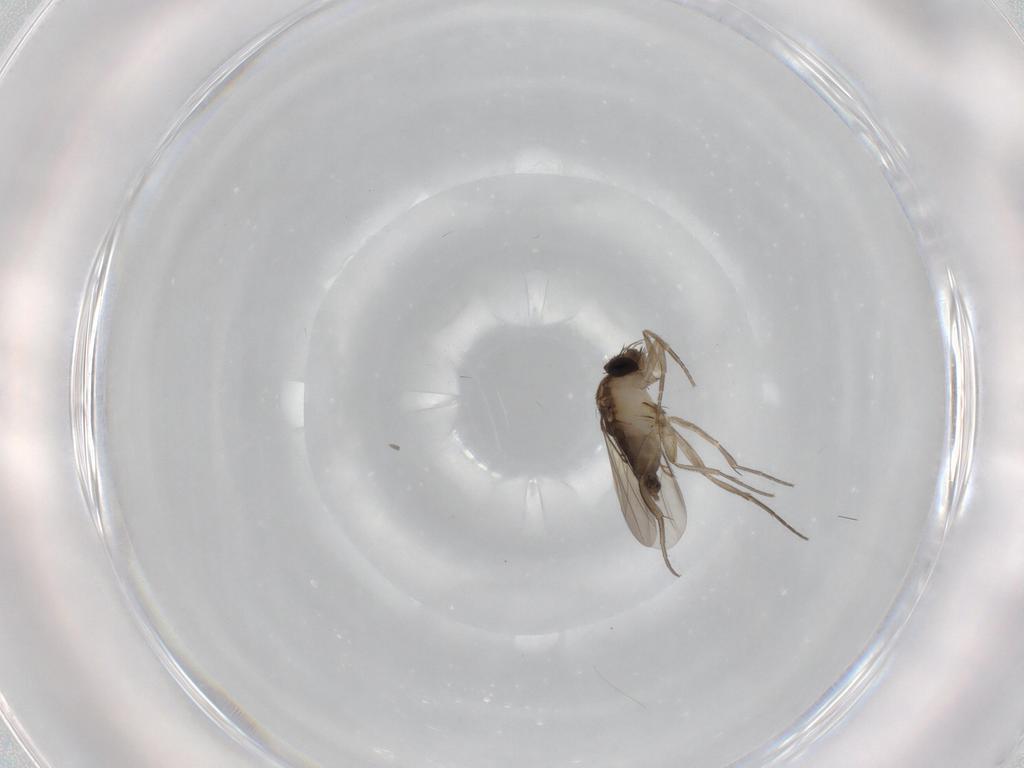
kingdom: Animalia
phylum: Arthropoda
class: Insecta
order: Diptera
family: Phoridae
